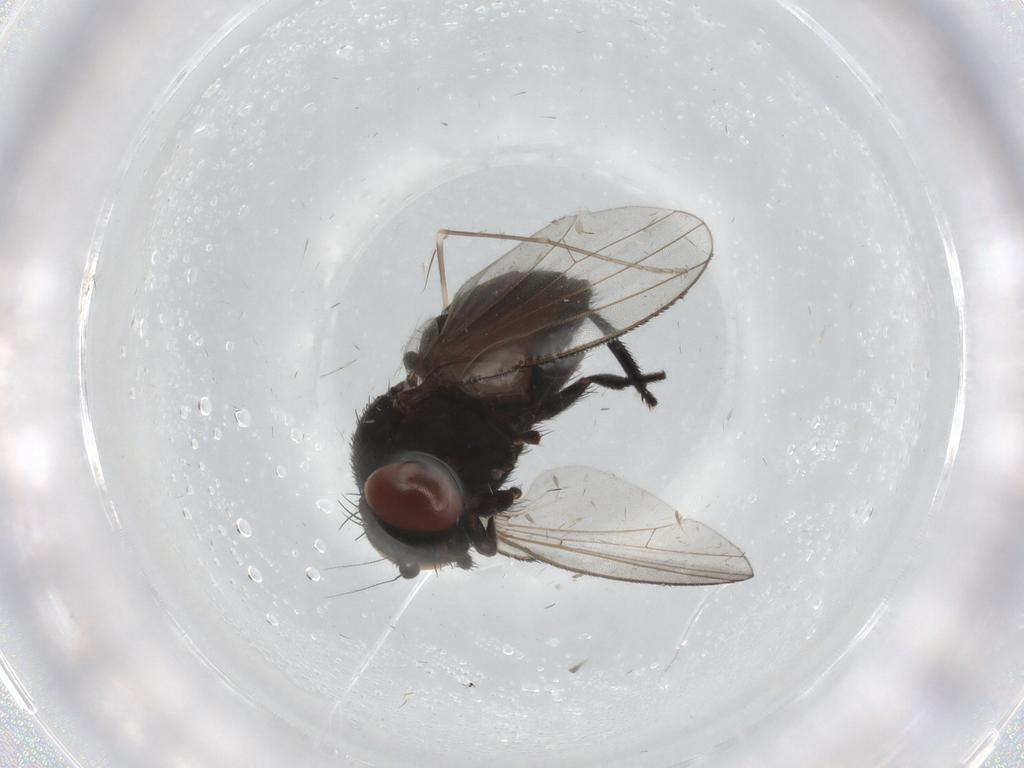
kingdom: Animalia
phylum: Arthropoda
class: Insecta
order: Diptera
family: Milichiidae
